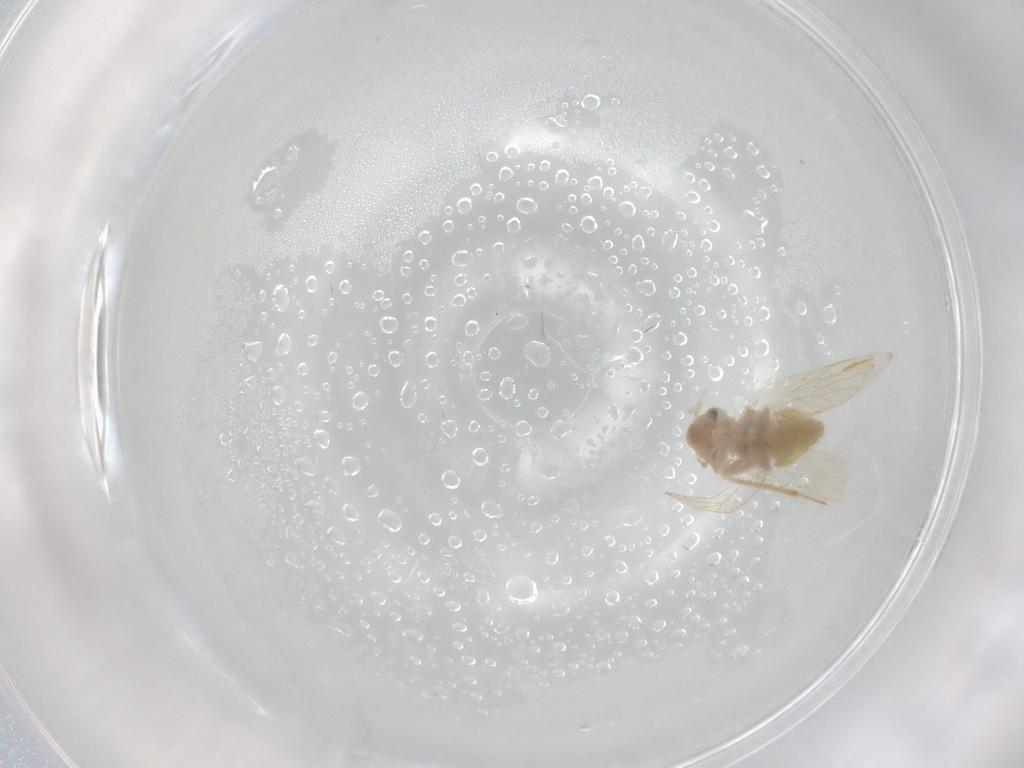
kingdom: Animalia
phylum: Arthropoda
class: Insecta
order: Psocodea
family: Lepidopsocidae
